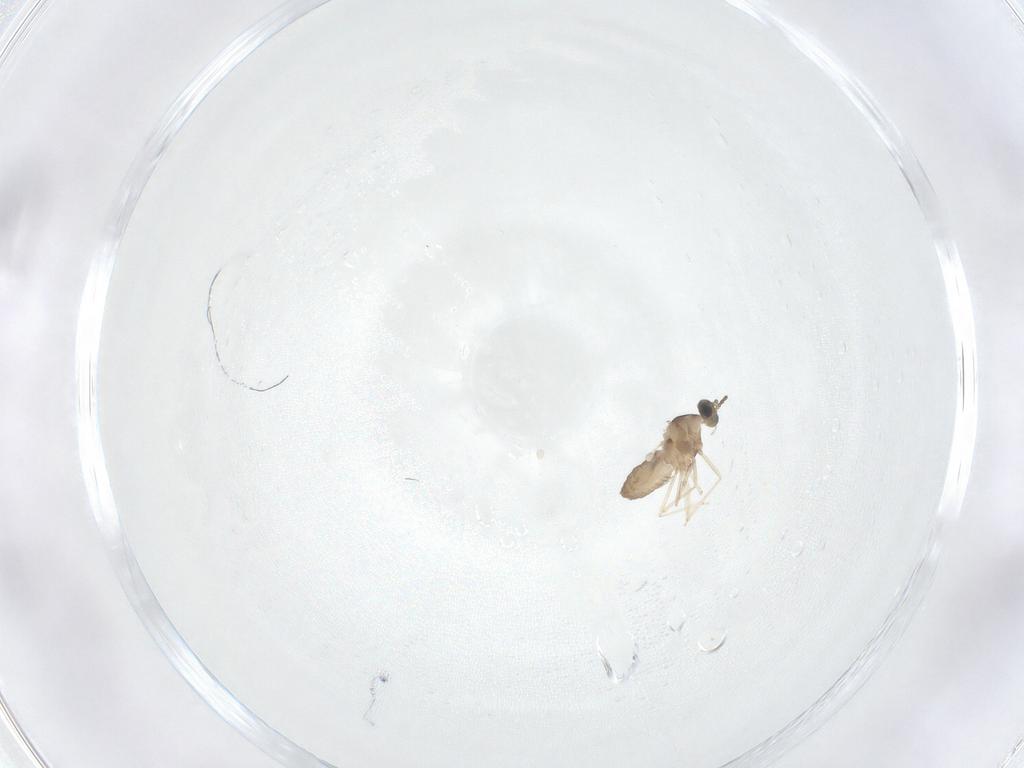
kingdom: Animalia
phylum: Arthropoda
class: Insecta
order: Diptera
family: Cecidomyiidae
